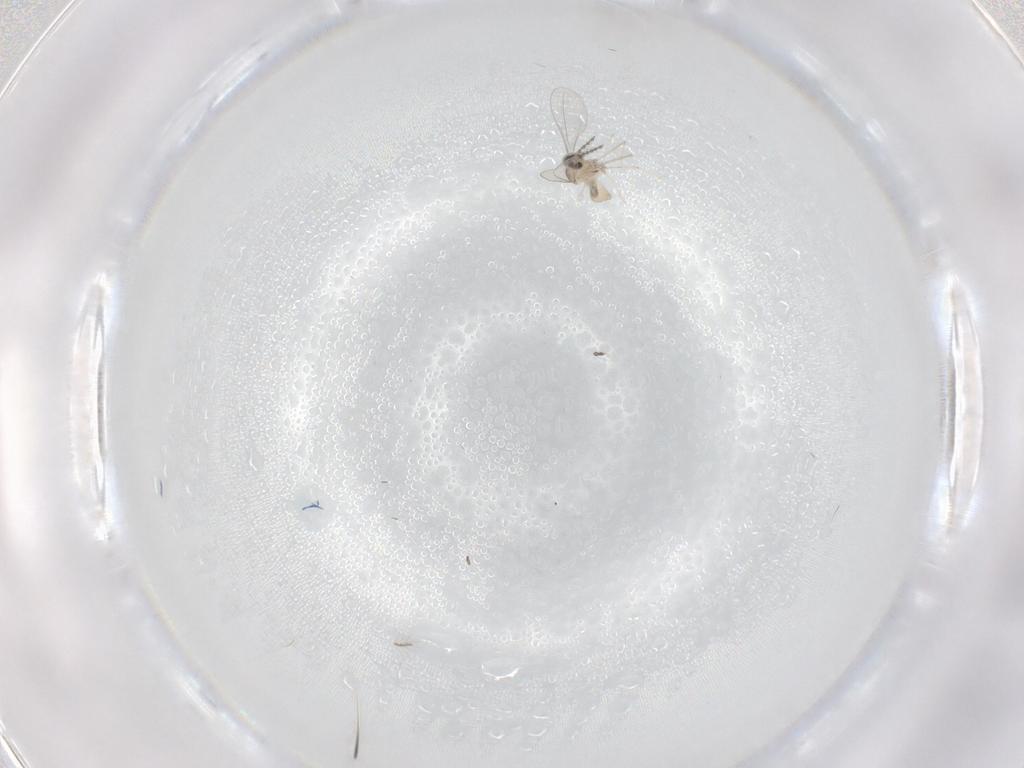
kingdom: Animalia
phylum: Arthropoda
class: Insecta
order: Diptera
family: Cecidomyiidae
